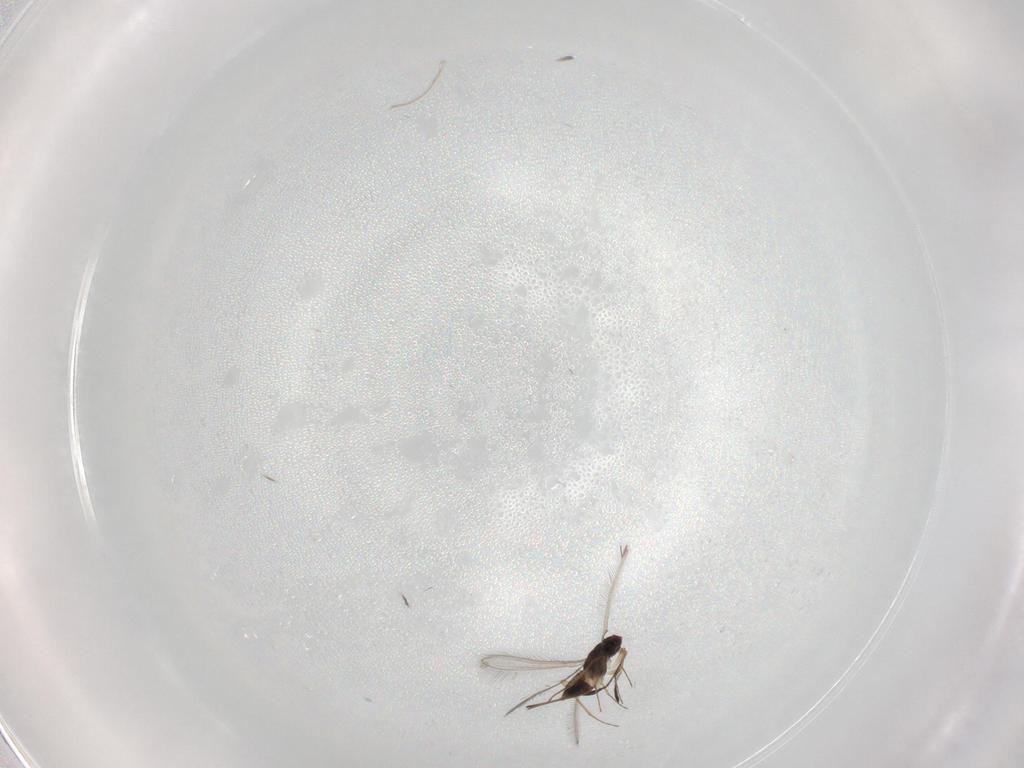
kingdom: Animalia
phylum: Arthropoda
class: Insecta
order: Hymenoptera
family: Mymaridae
